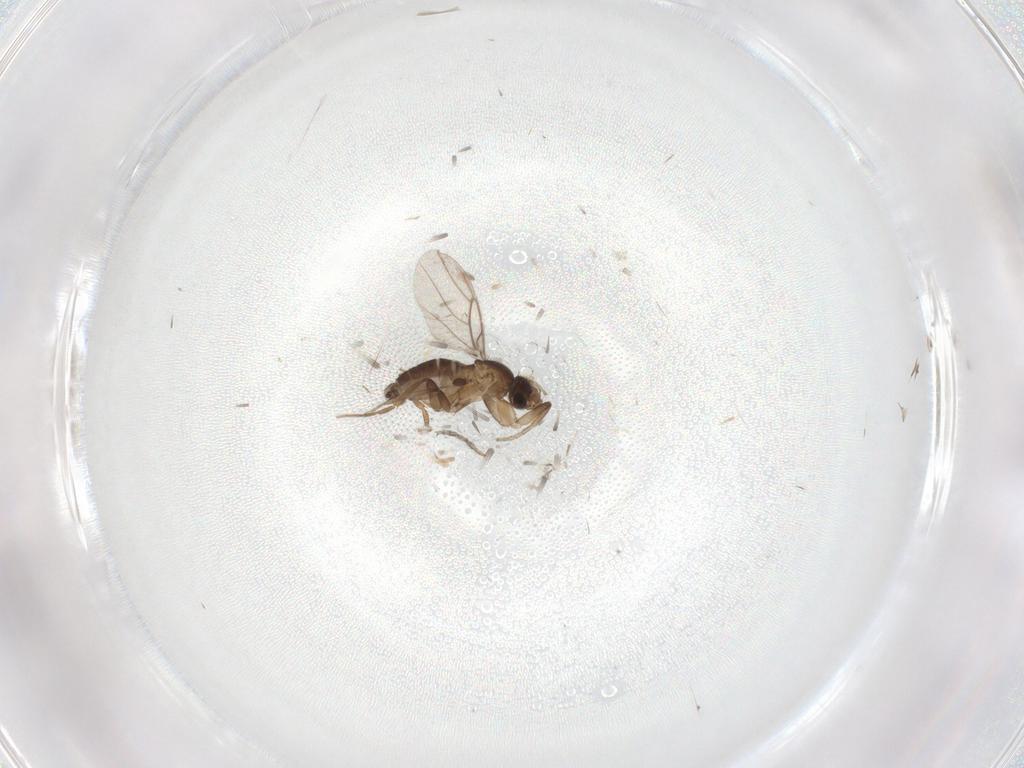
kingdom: Animalia
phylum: Arthropoda
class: Insecta
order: Diptera
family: Phoridae
